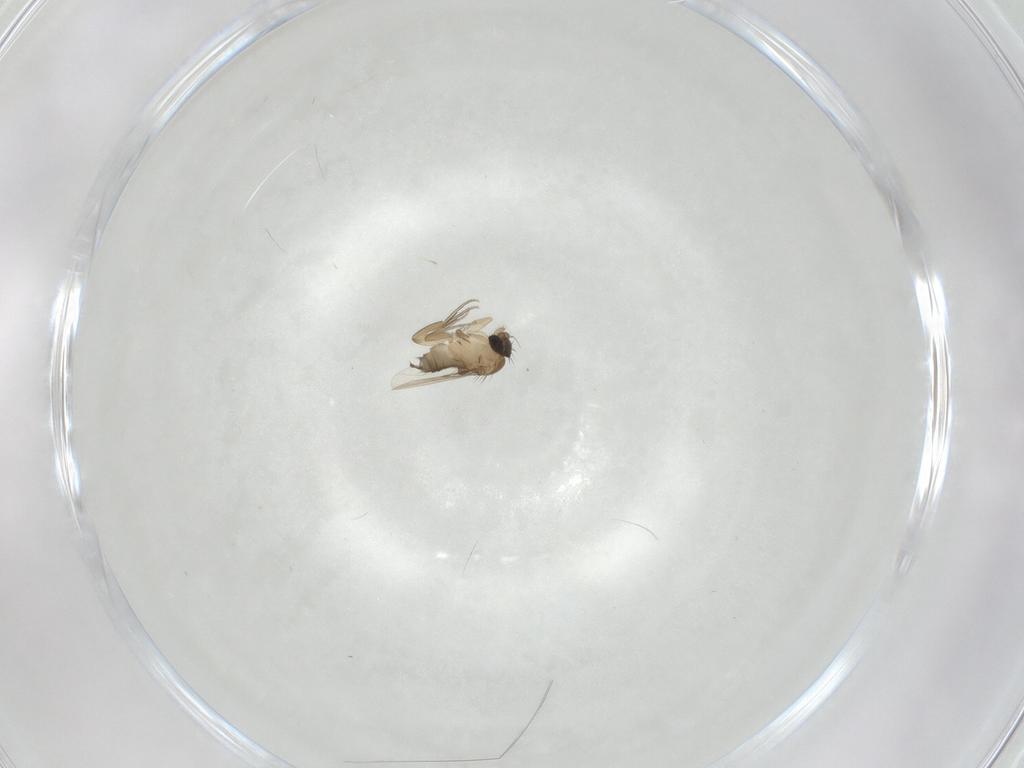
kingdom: Animalia
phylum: Arthropoda
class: Insecta
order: Diptera
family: Phoridae
